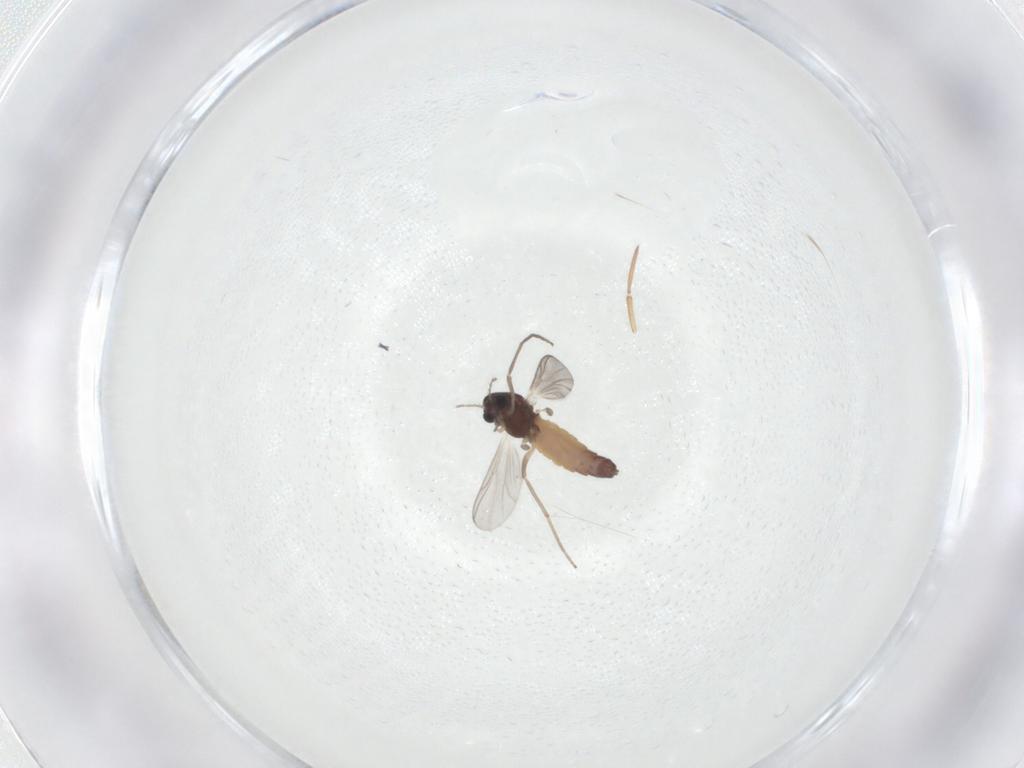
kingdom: Animalia
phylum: Arthropoda
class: Insecta
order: Diptera
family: Chironomidae
